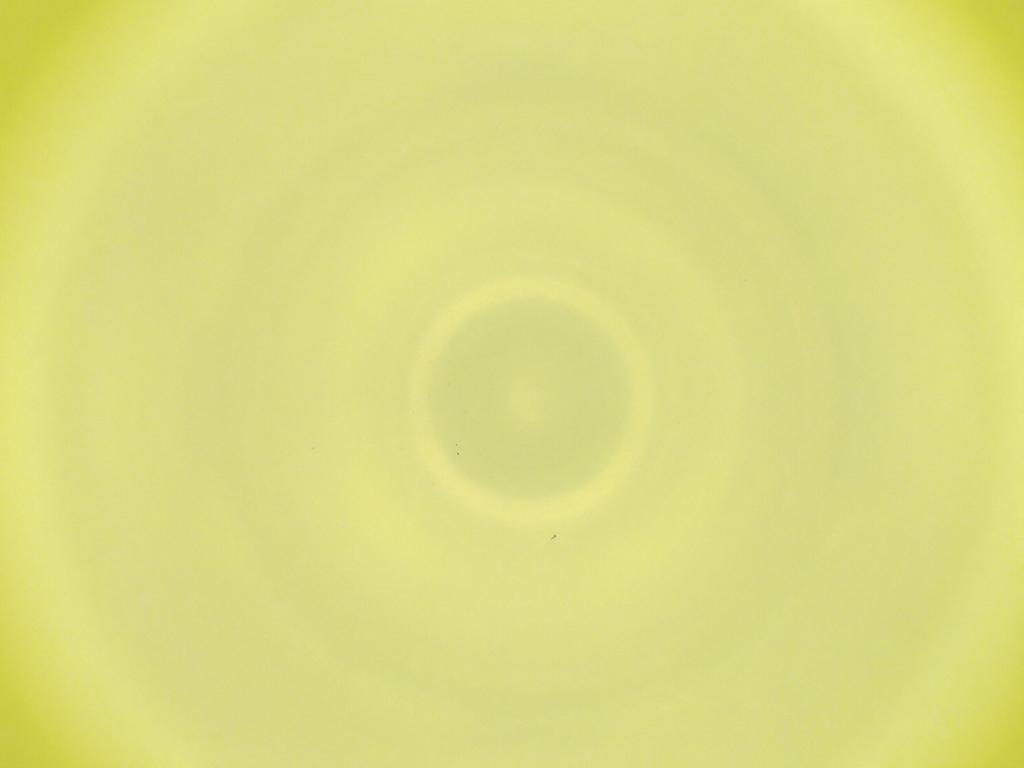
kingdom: Animalia
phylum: Arthropoda
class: Insecta
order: Diptera
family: Cecidomyiidae
